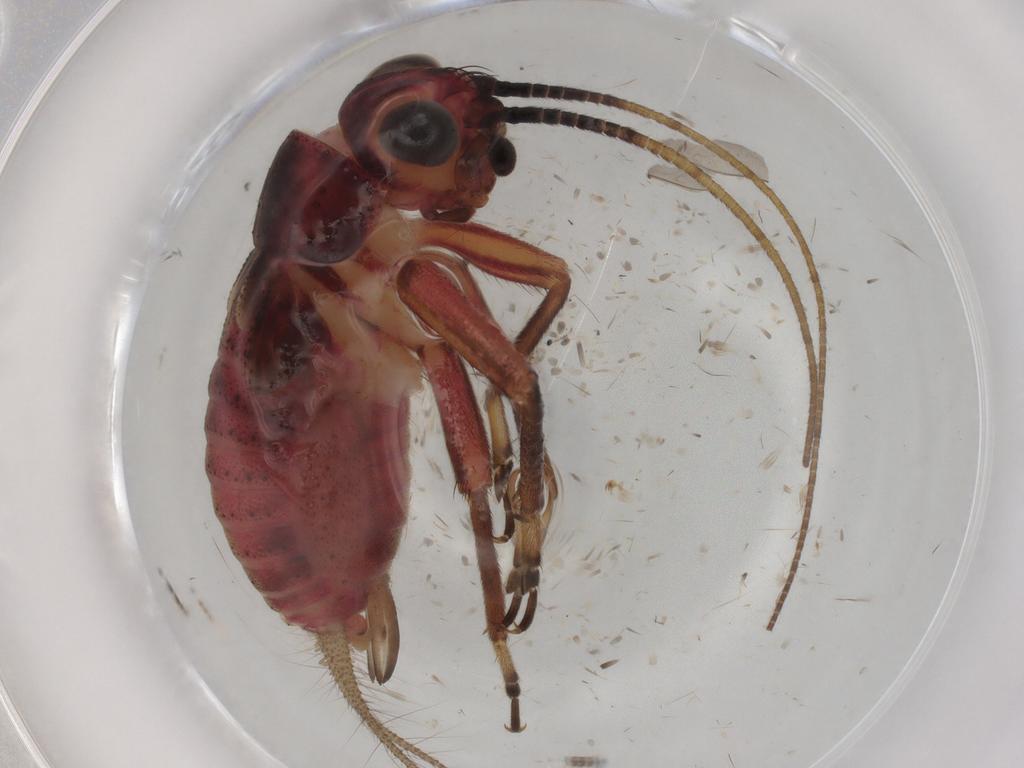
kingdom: Animalia
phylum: Arthropoda
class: Insecta
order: Orthoptera
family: Trigonidiidae
